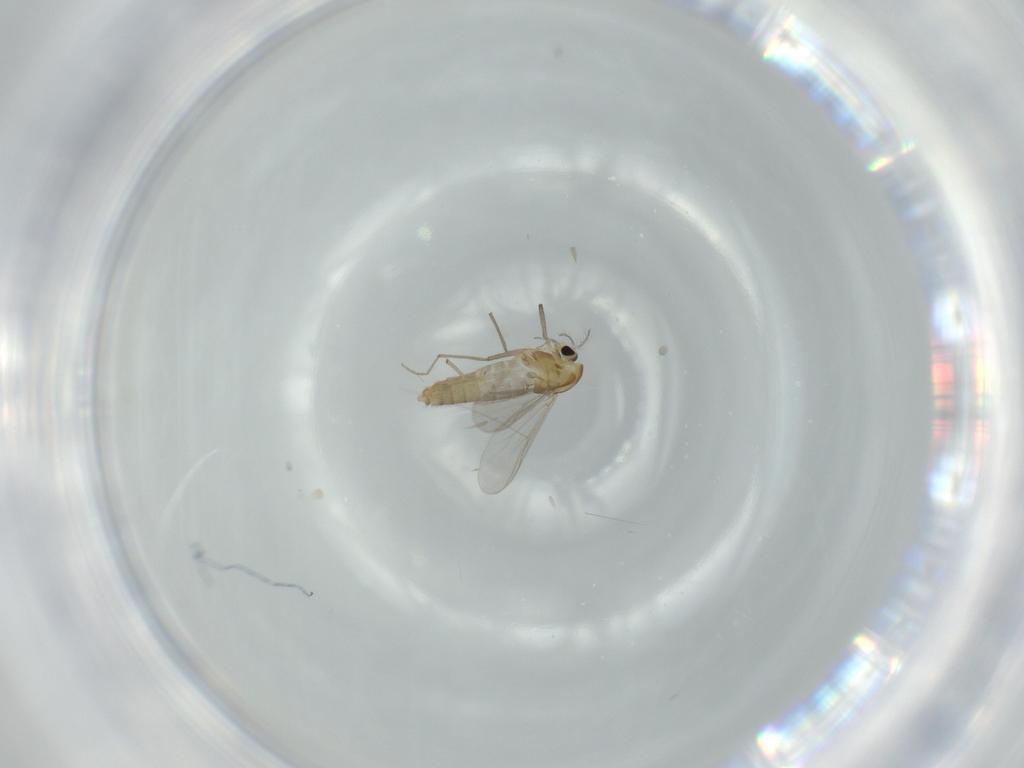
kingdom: Animalia
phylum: Arthropoda
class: Insecta
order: Diptera
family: Chironomidae
